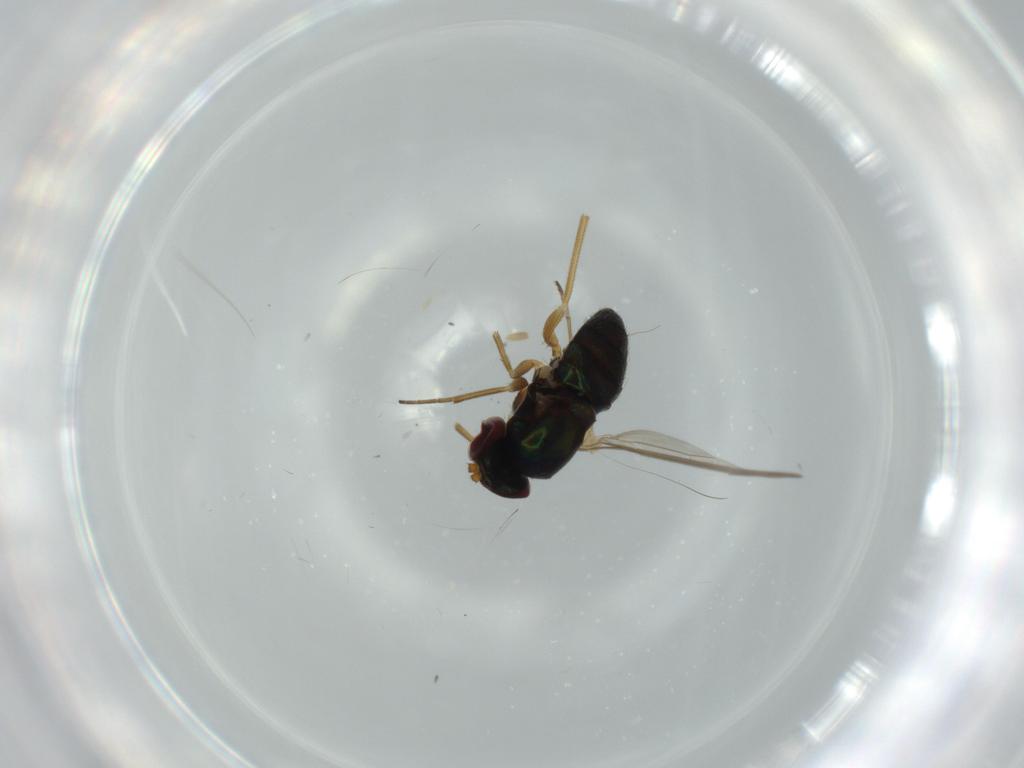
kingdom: Animalia
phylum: Arthropoda
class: Insecta
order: Diptera
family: Dolichopodidae
